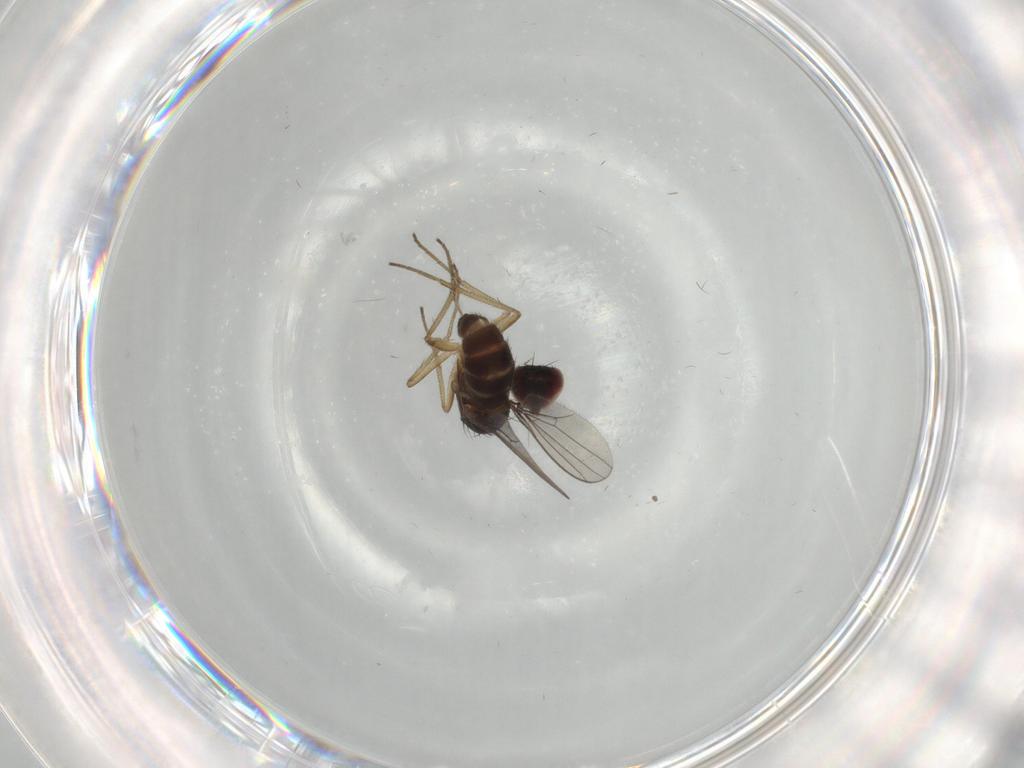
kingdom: Animalia
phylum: Arthropoda
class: Insecta
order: Diptera
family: Dolichopodidae
